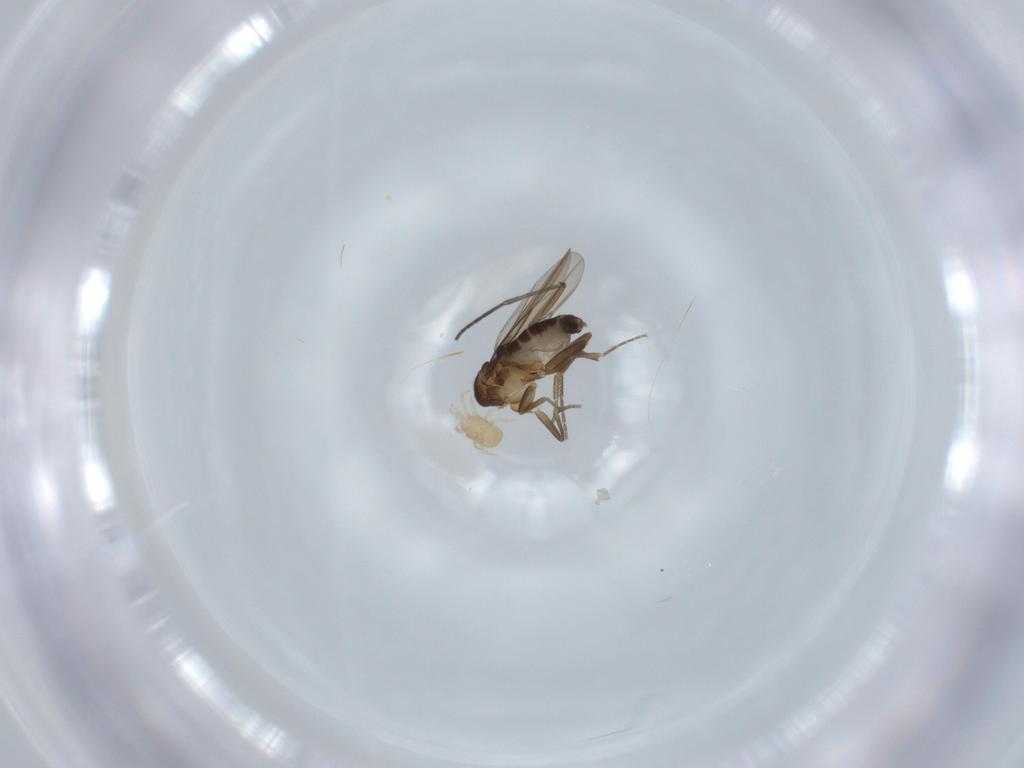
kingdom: Animalia
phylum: Arthropoda
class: Insecta
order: Diptera
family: Phoridae
